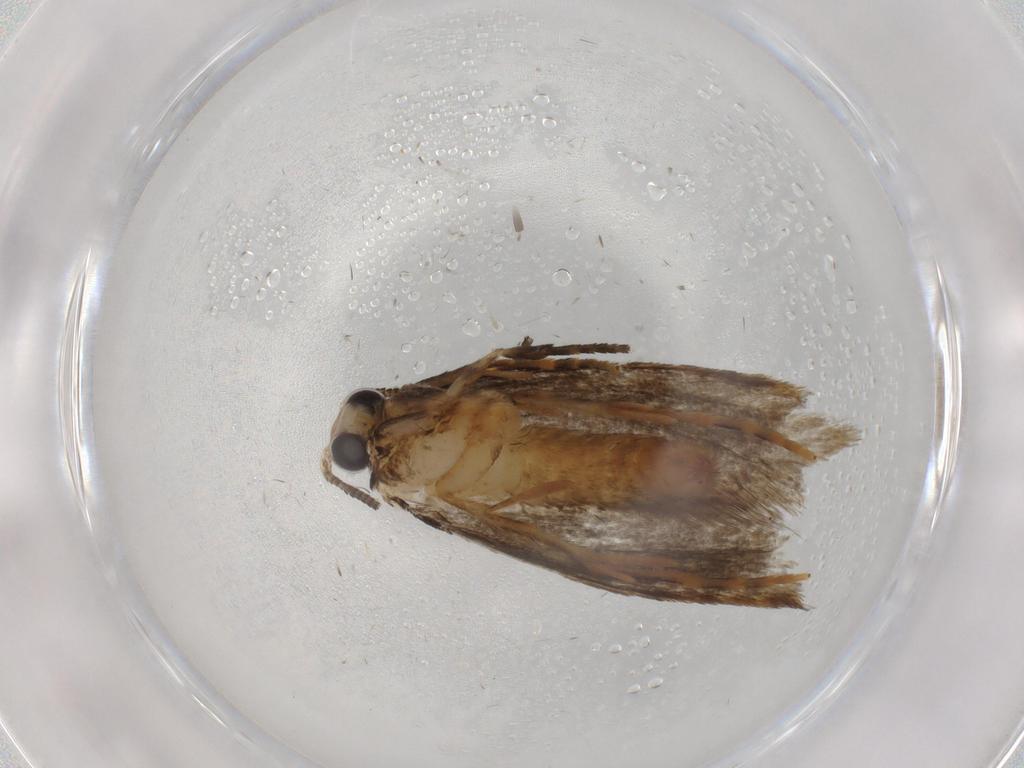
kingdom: Animalia
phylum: Arthropoda
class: Insecta
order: Lepidoptera
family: Tineidae
